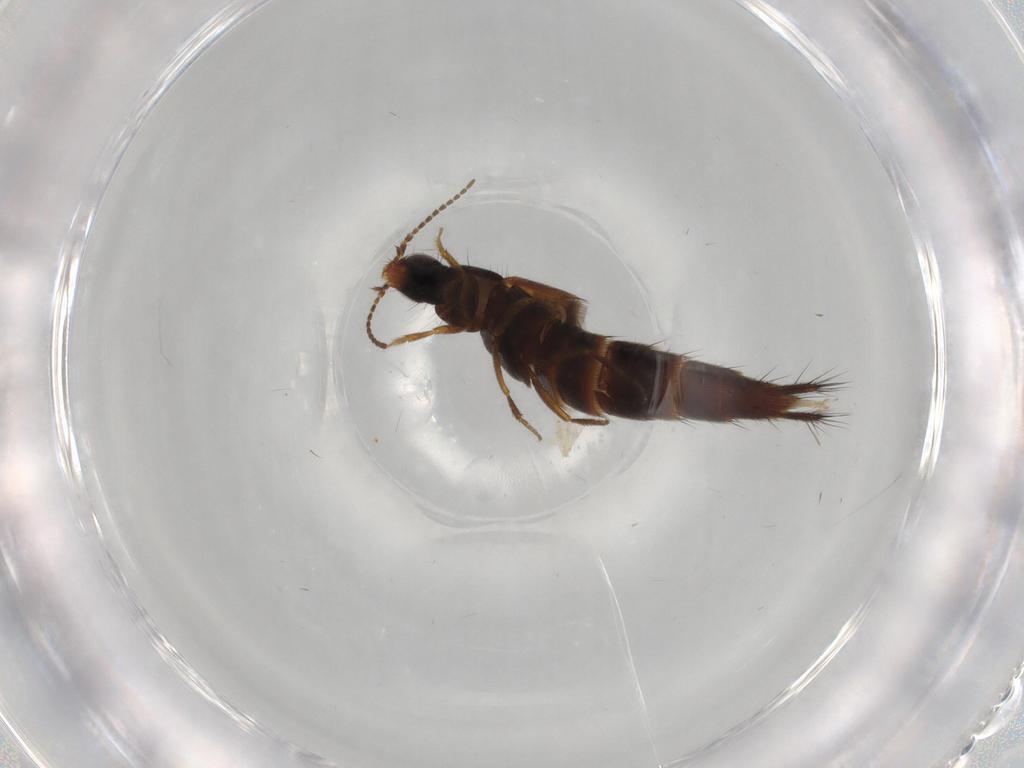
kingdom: Animalia
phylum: Arthropoda
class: Insecta
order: Coleoptera
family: Staphylinidae
